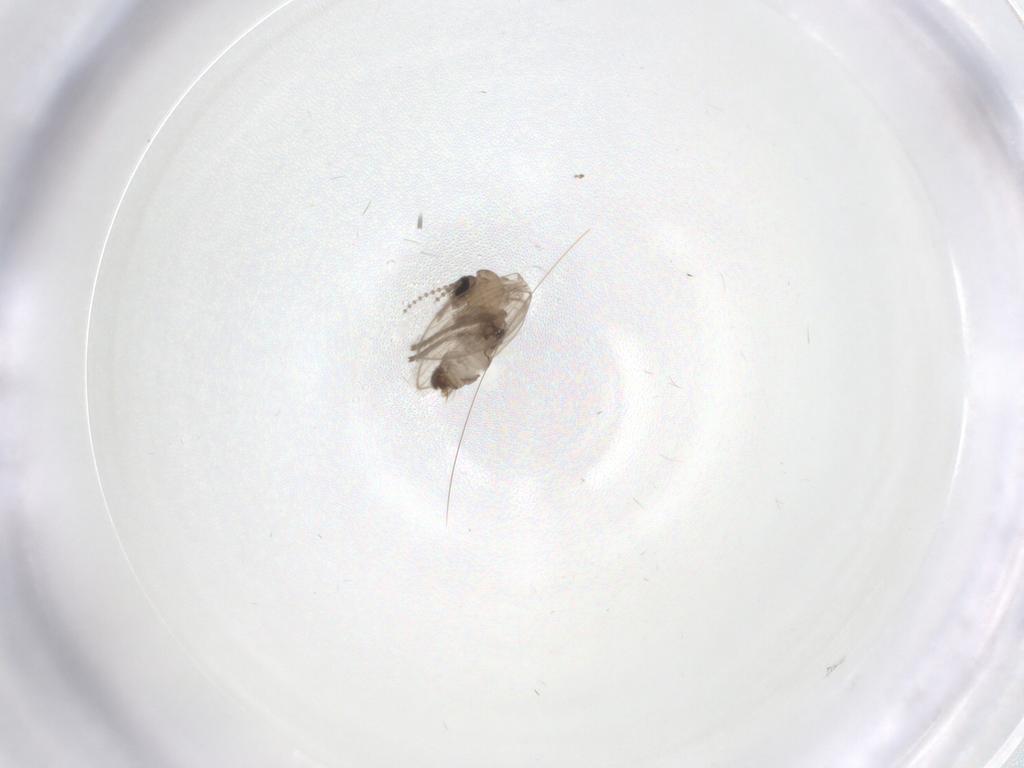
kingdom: Animalia
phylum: Arthropoda
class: Insecta
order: Diptera
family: Psychodidae
